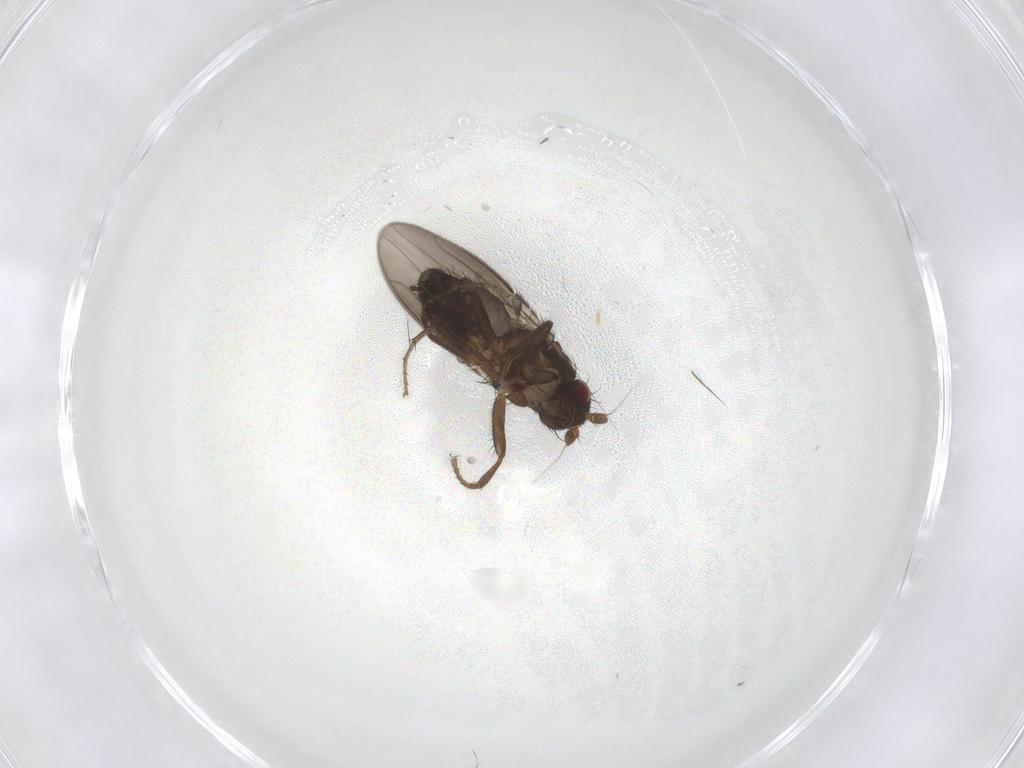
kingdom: Animalia
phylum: Arthropoda
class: Insecta
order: Diptera
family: Sphaeroceridae
